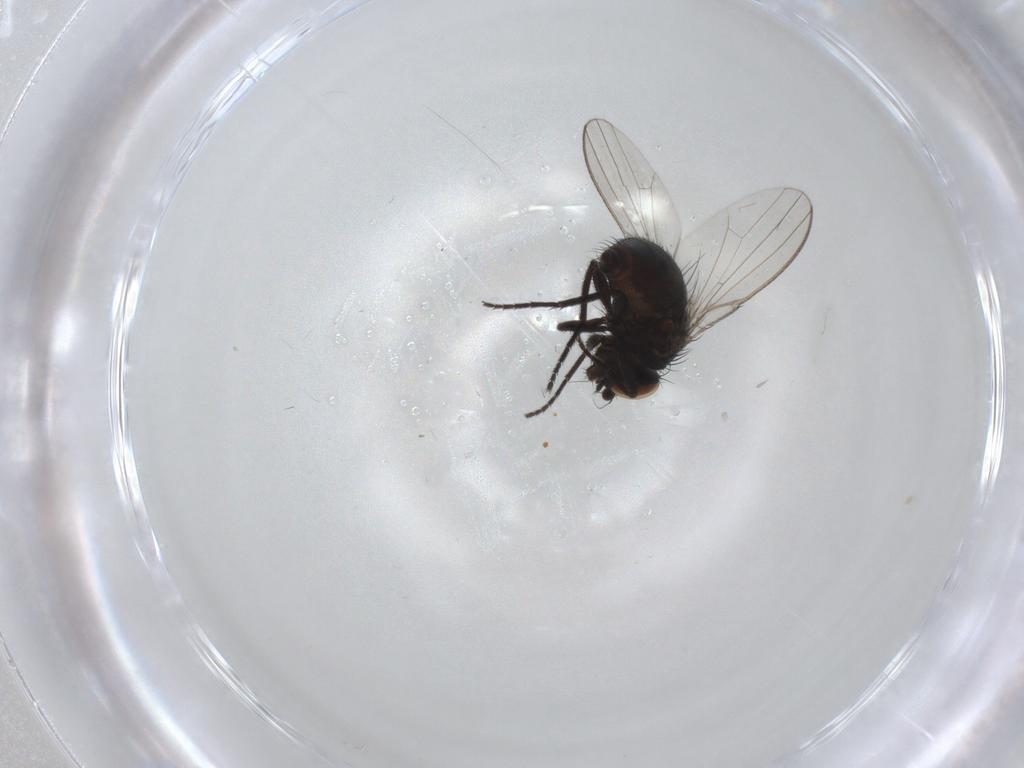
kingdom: Animalia
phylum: Arthropoda
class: Insecta
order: Diptera
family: Milichiidae
